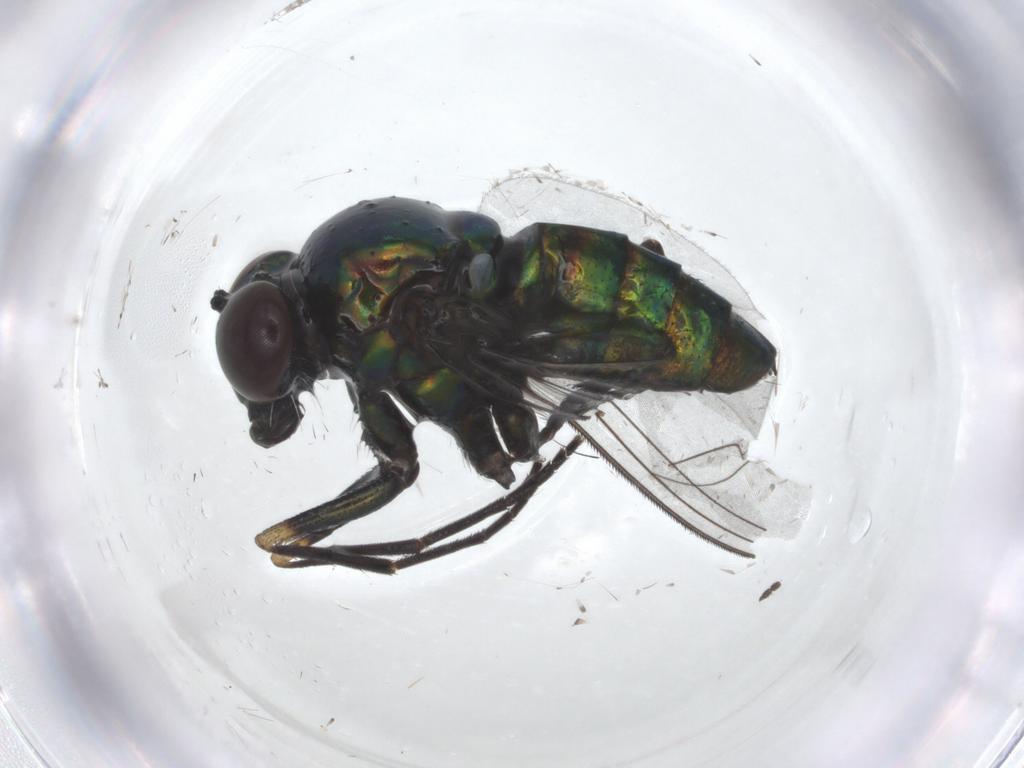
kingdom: Animalia
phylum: Arthropoda
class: Insecta
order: Diptera
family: Dolichopodidae
